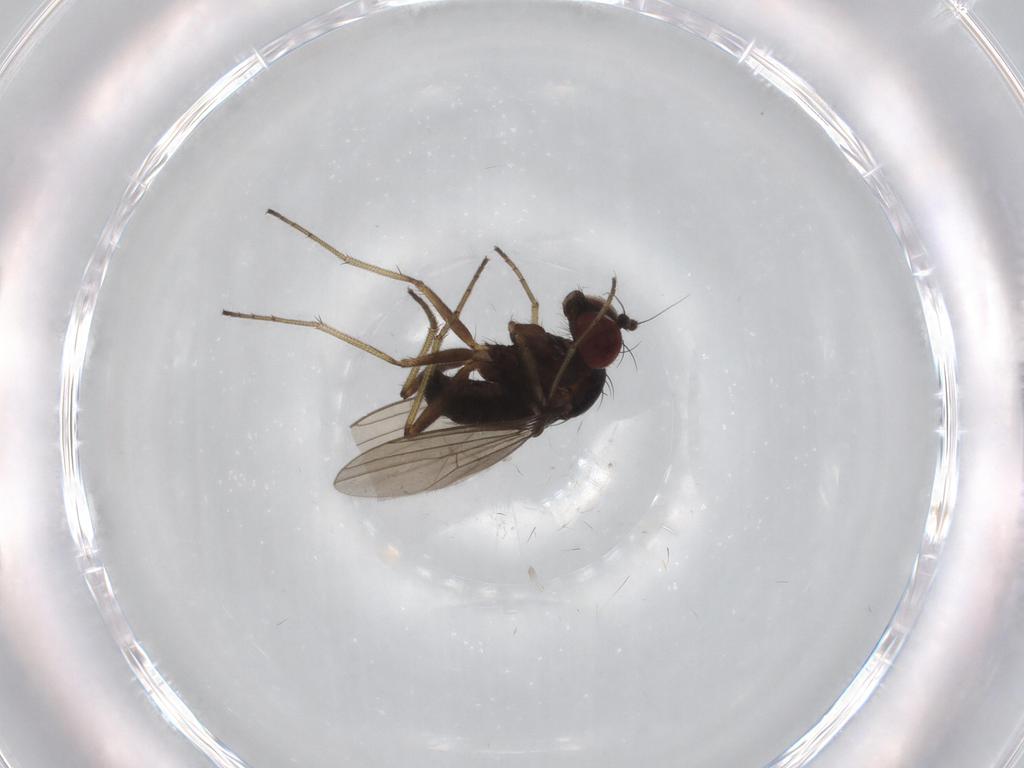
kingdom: Animalia
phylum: Arthropoda
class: Insecta
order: Diptera
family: Dolichopodidae
